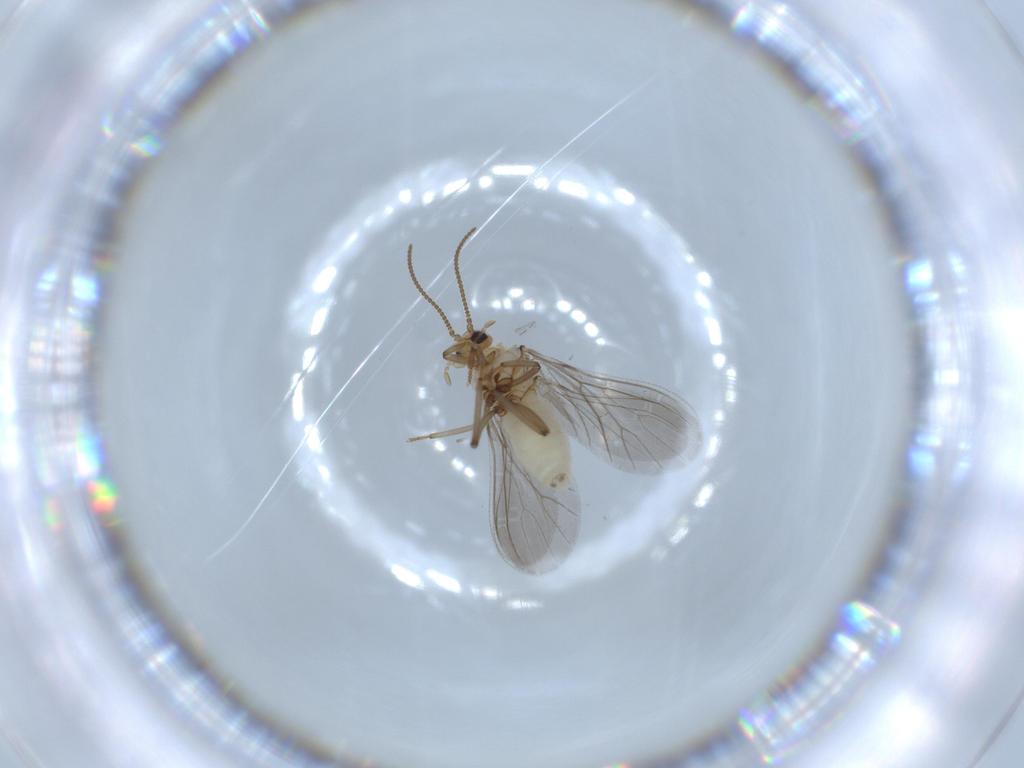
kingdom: Animalia
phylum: Arthropoda
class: Insecta
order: Neuroptera
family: Coniopterygidae
